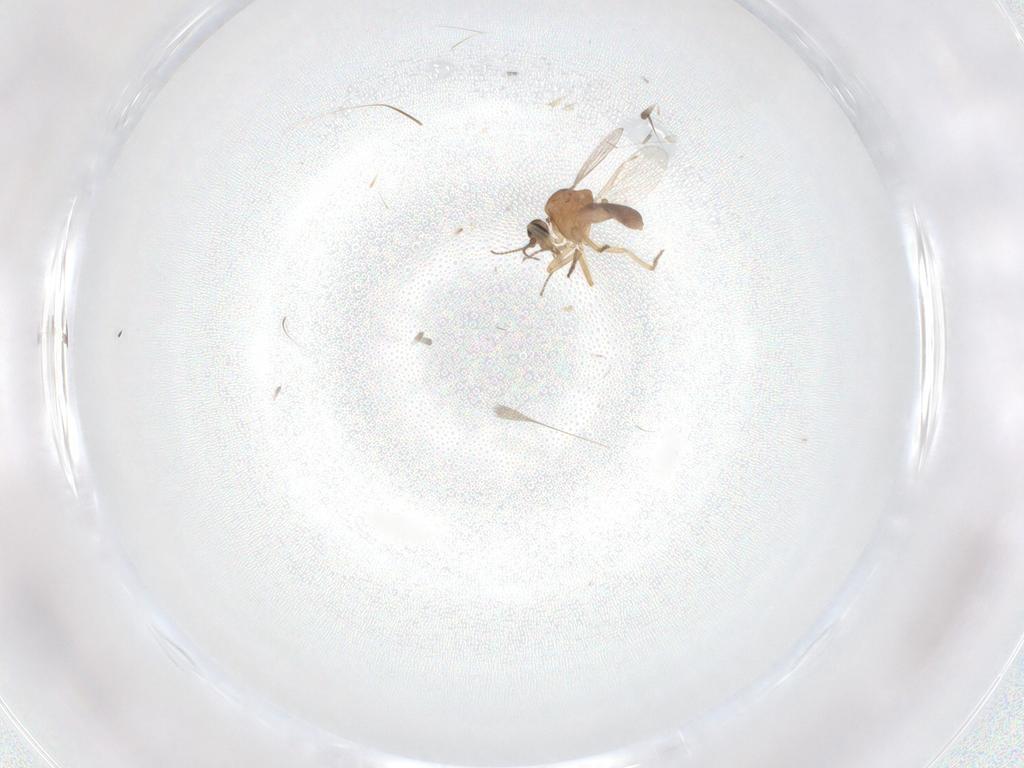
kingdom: Animalia
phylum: Arthropoda
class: Insecta
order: Diptera
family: Ceratopogonidae
